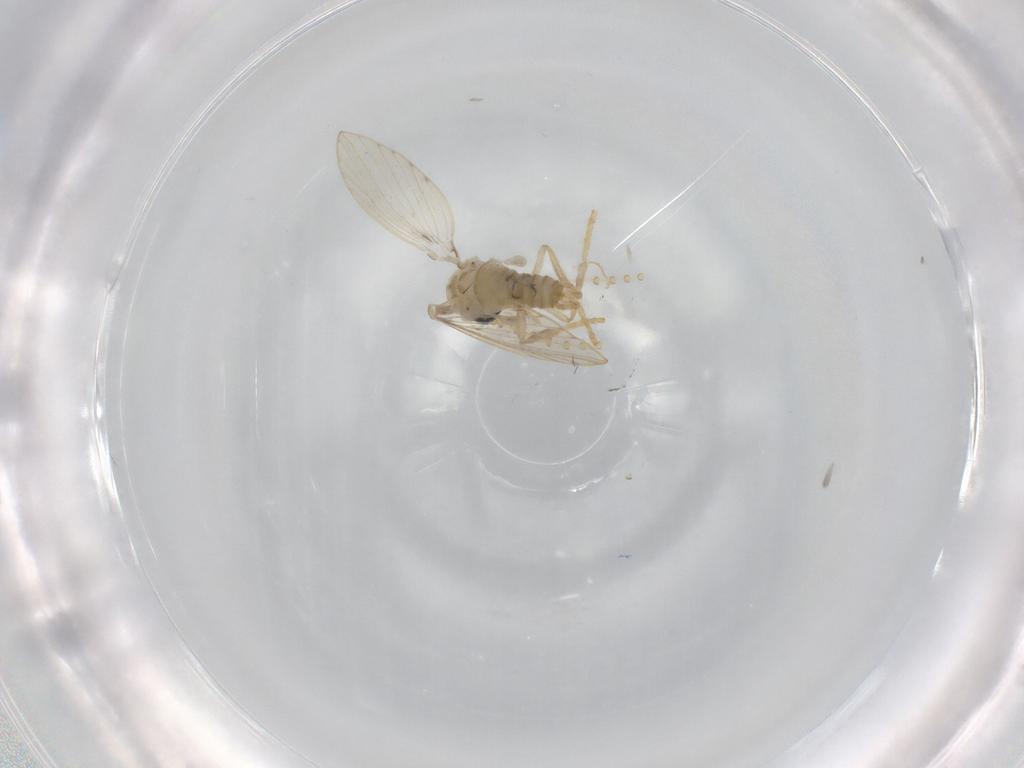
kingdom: Animalia
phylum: Arthropoda
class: Insecta
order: Diptera
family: Psychodidae
